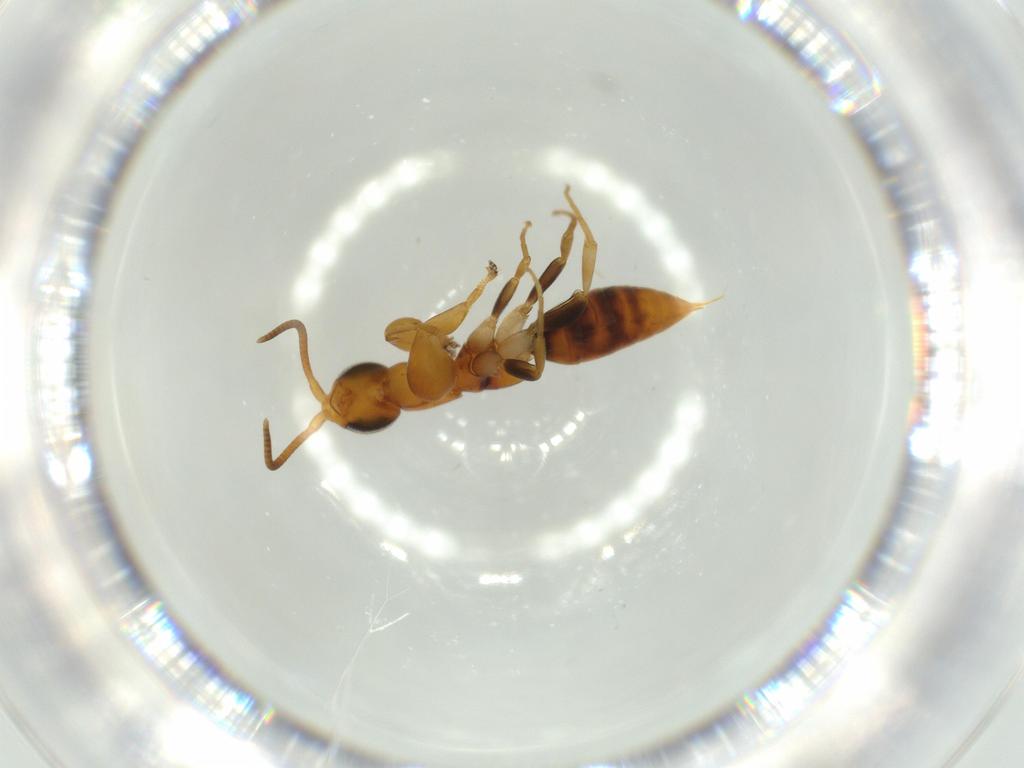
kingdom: Animalia
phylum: Arthropoda
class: Insecta
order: Hymenoptera
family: Sclerogibbidae
